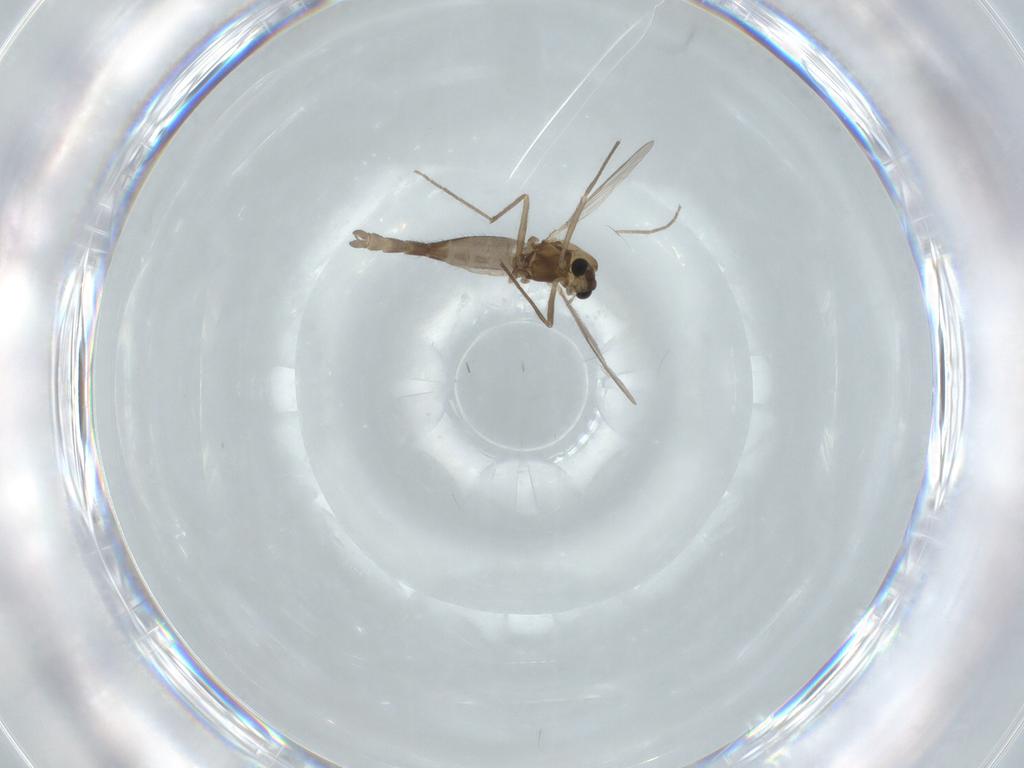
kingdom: Animalia
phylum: Arthropoda
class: Insecta
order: Diptera
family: Chironomidae
